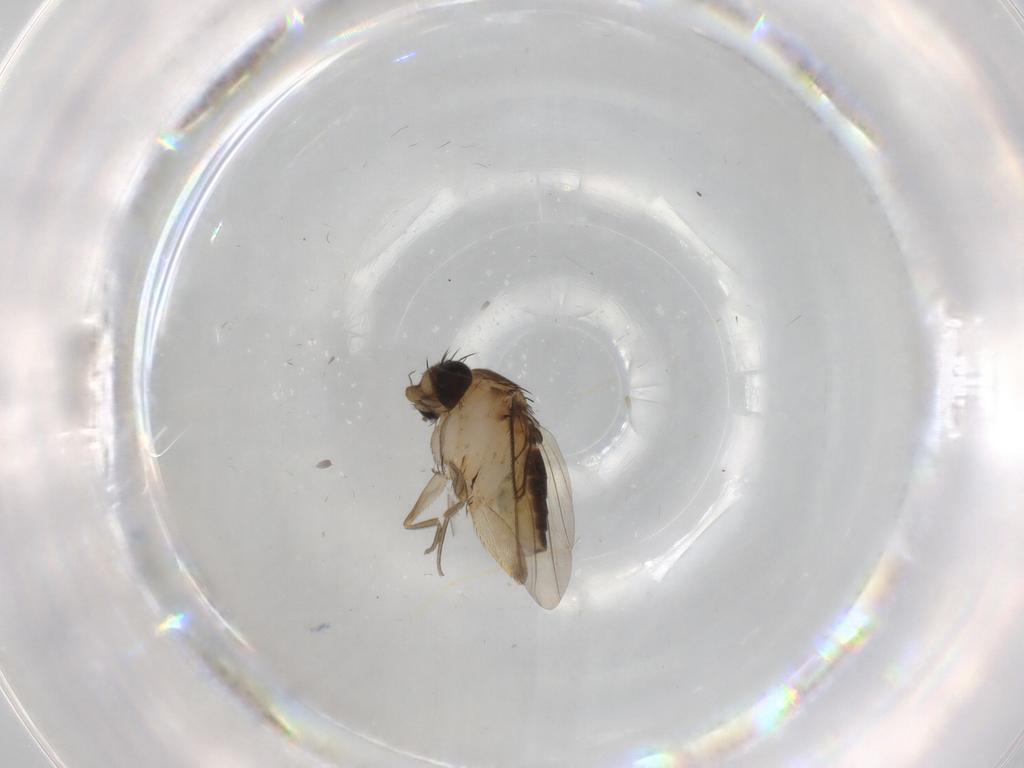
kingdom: Animalia
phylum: Arthropoda
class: Insecta
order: Diptera
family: Phoridae
